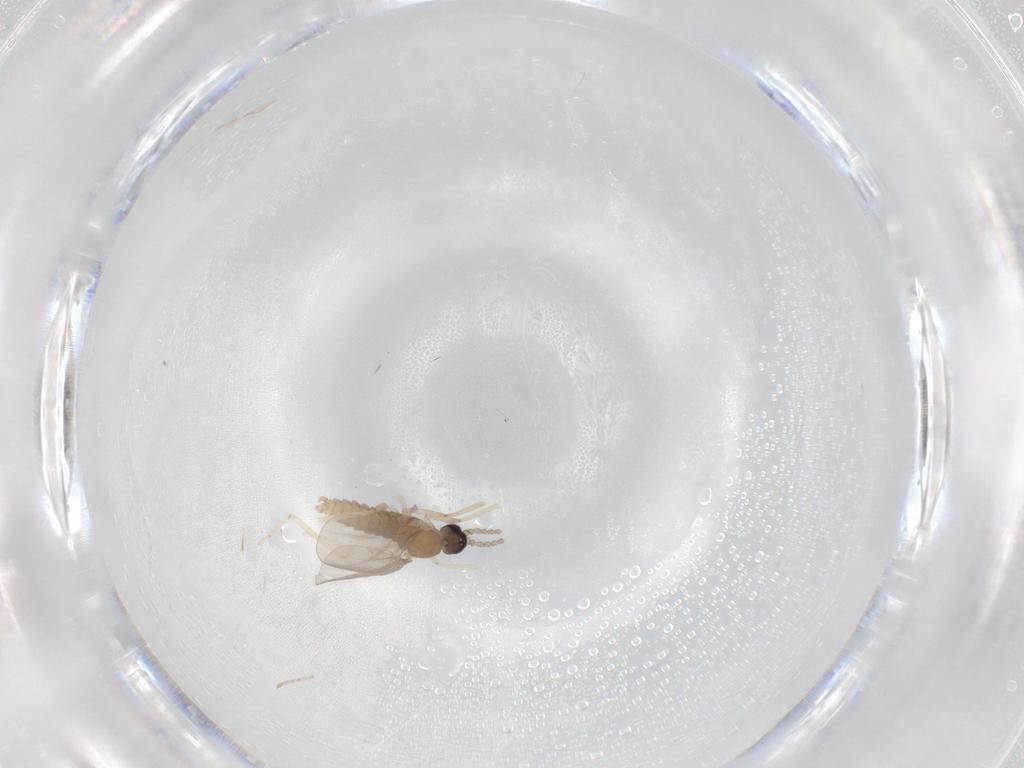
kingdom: Animalia
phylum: Arthropoda
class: Insecta
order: Diptera
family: Cecidomyiidae
